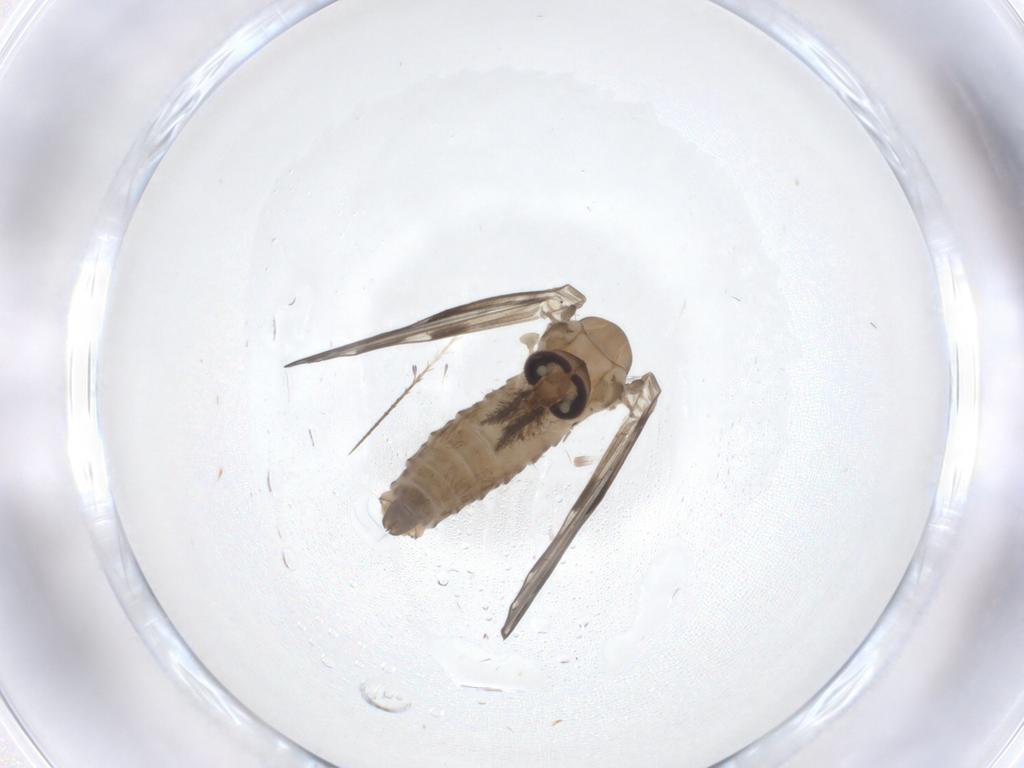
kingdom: Animalia
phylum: Arthropoda
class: Insecta
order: Diptera
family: Psychodidae
